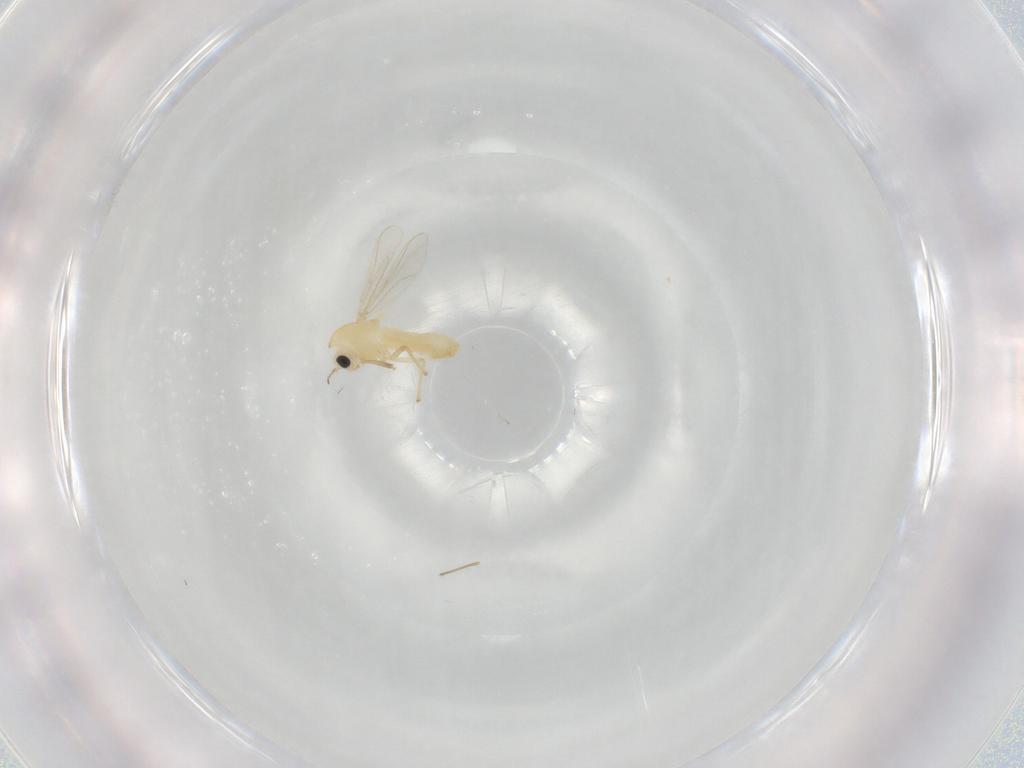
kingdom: Animalia
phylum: Arthropoda
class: Insecta
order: Diptera
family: Chironomidae
